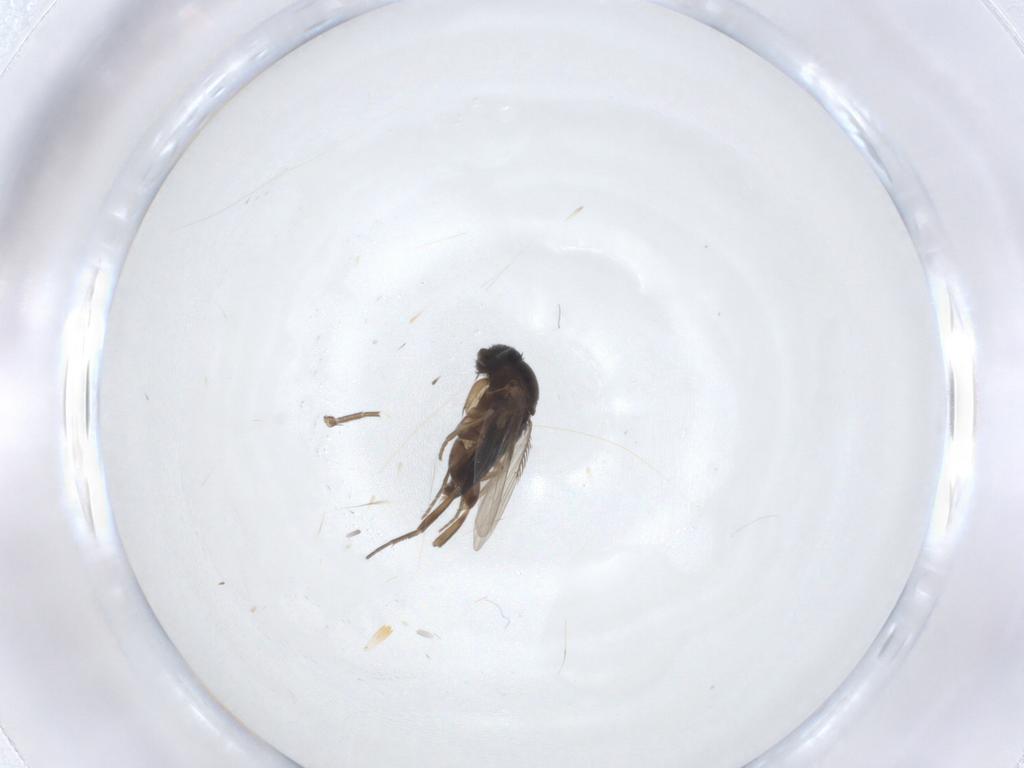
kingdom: Animalia
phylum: Arthropoda
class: Insecta
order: Diptera
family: Phoridae
